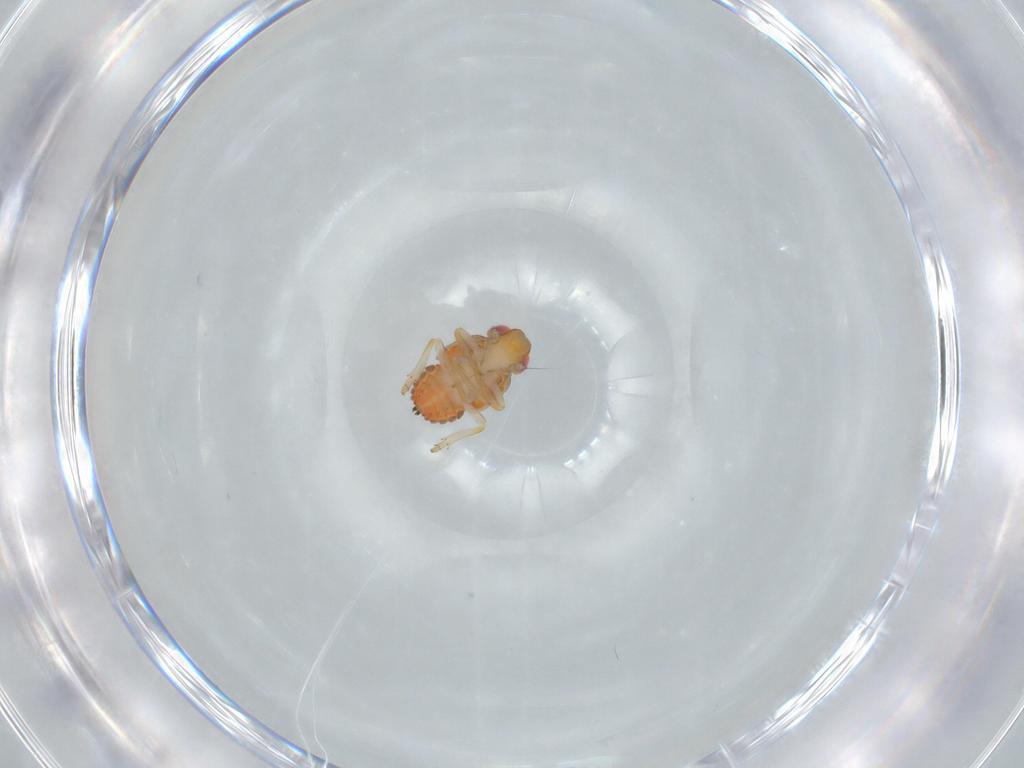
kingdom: Animalia
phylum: Arthropoda
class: Insecta
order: Hemiptera
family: Issidae
